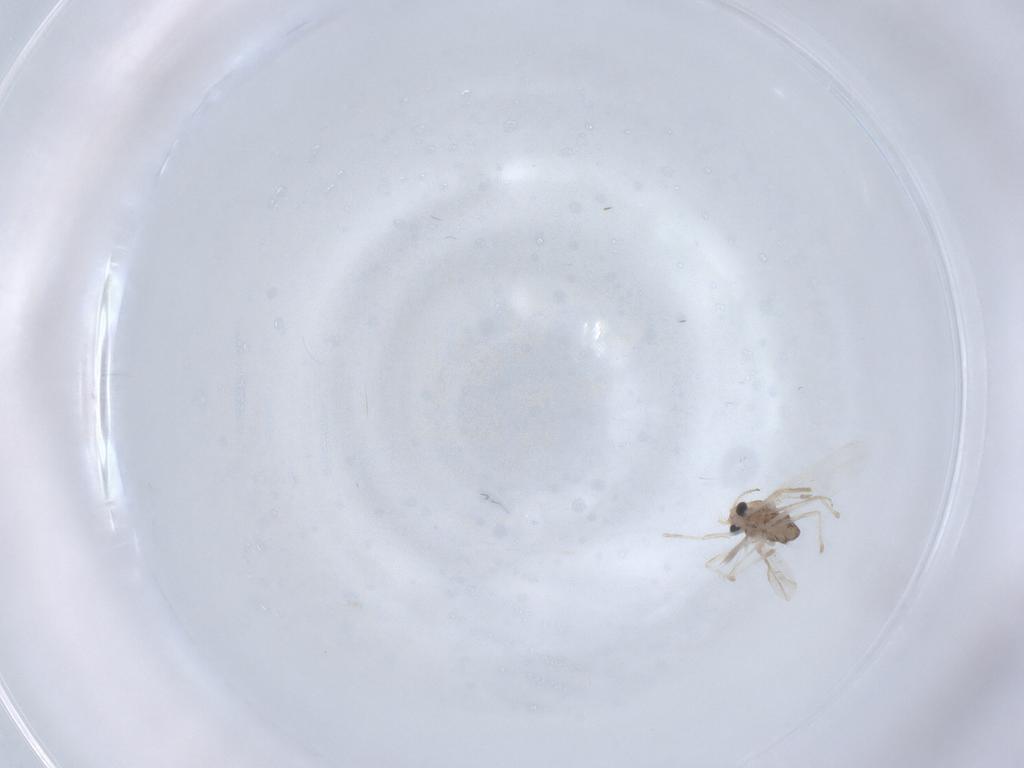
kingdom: Animalia
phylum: Arthropoda
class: Insecta
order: Diptera
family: Chironomidae
